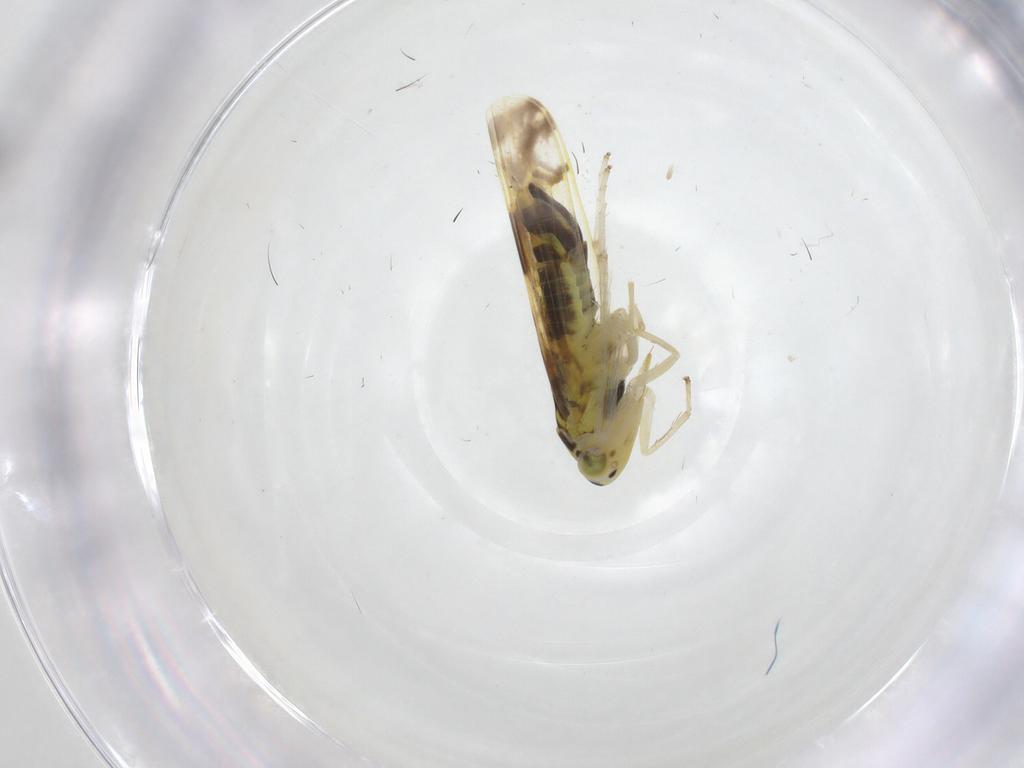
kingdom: Animalia
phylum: Arthropoda
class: Insecta
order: Hemiptera
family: Cicadellidae
